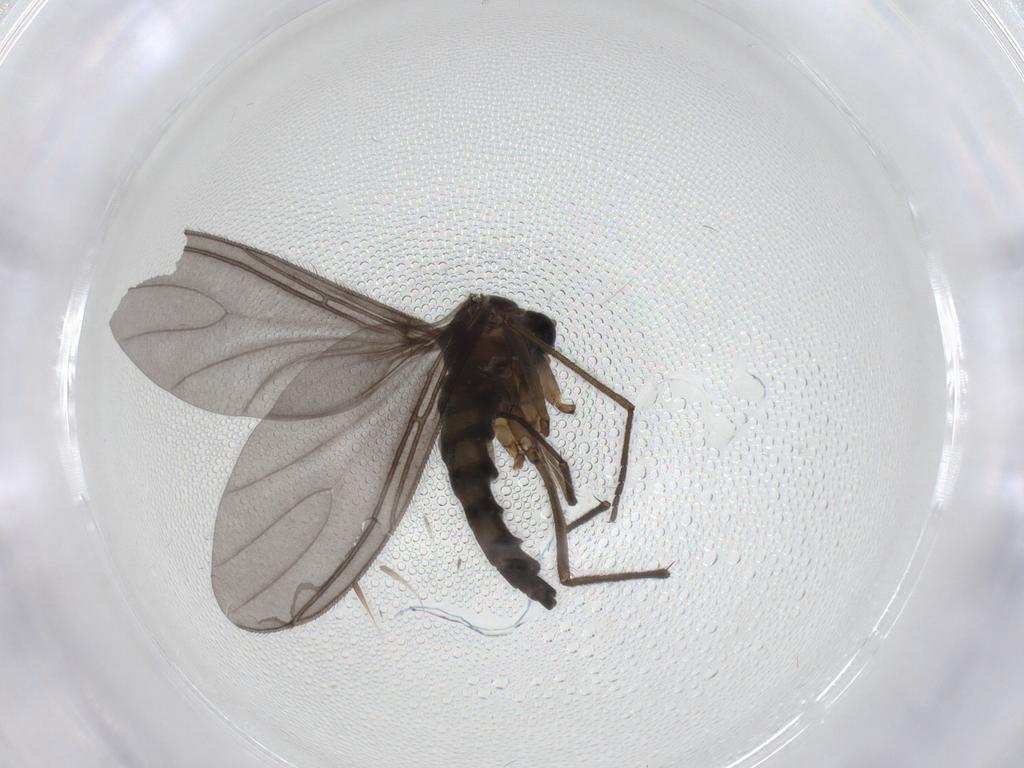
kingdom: Animalia
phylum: Arthropoda
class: Insecta
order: Diptera
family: Sciaridae
